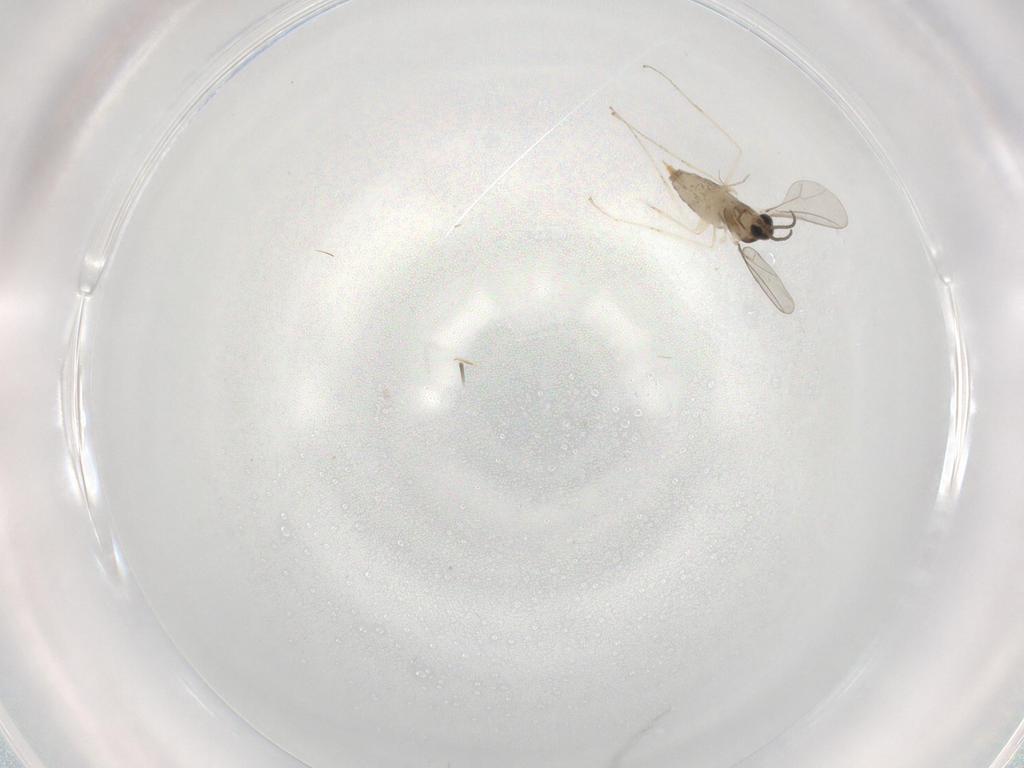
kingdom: Animalia
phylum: Arthropoda
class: Insecta
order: Diptera
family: Cecidomyiidae
